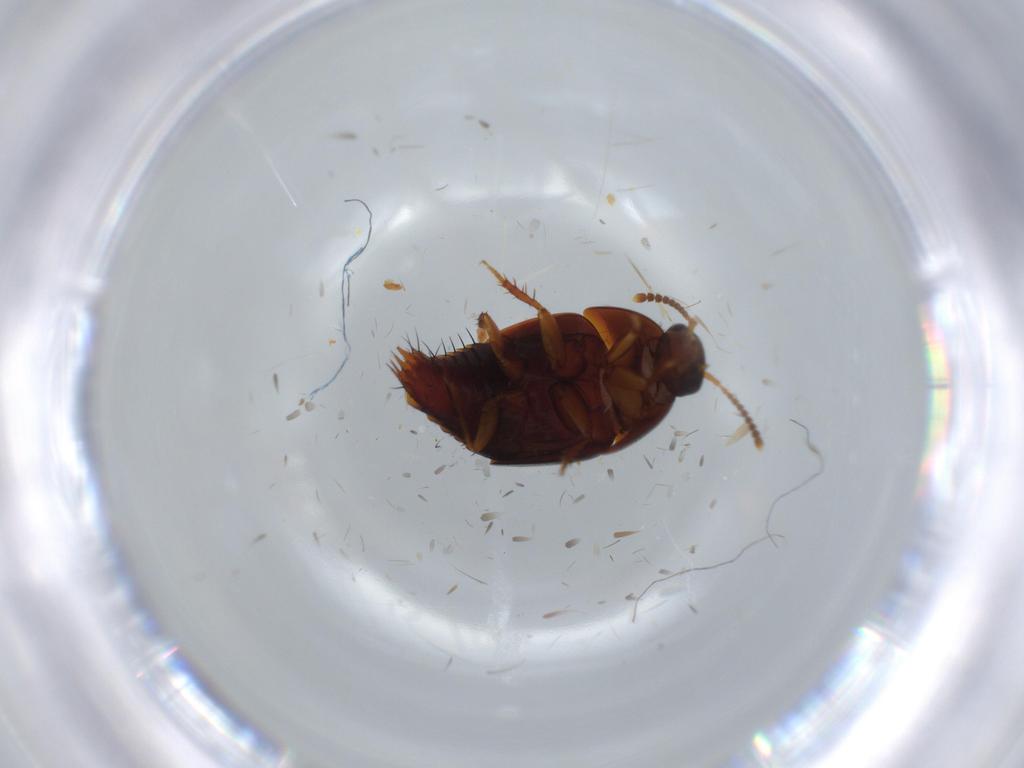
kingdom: Animalia
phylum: Arthropoda
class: Insecta
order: Coleoptera
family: Staphylinidae
